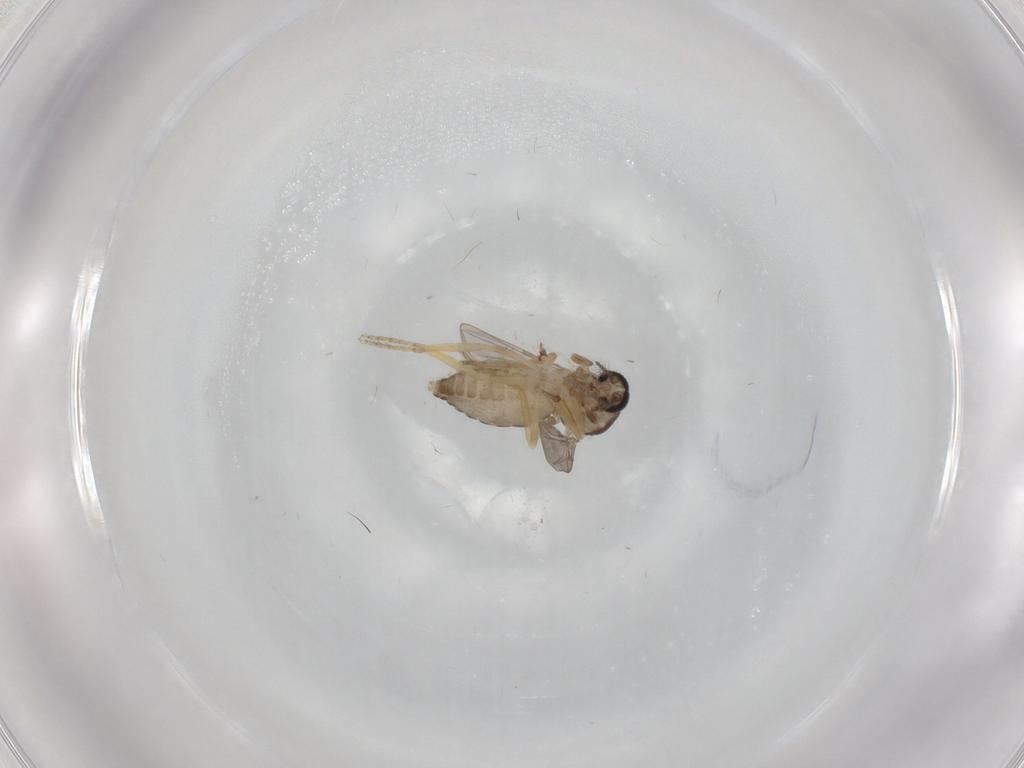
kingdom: Animalia
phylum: Arthropoda
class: Insecta
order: Diptera
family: Ceratopogonidae
